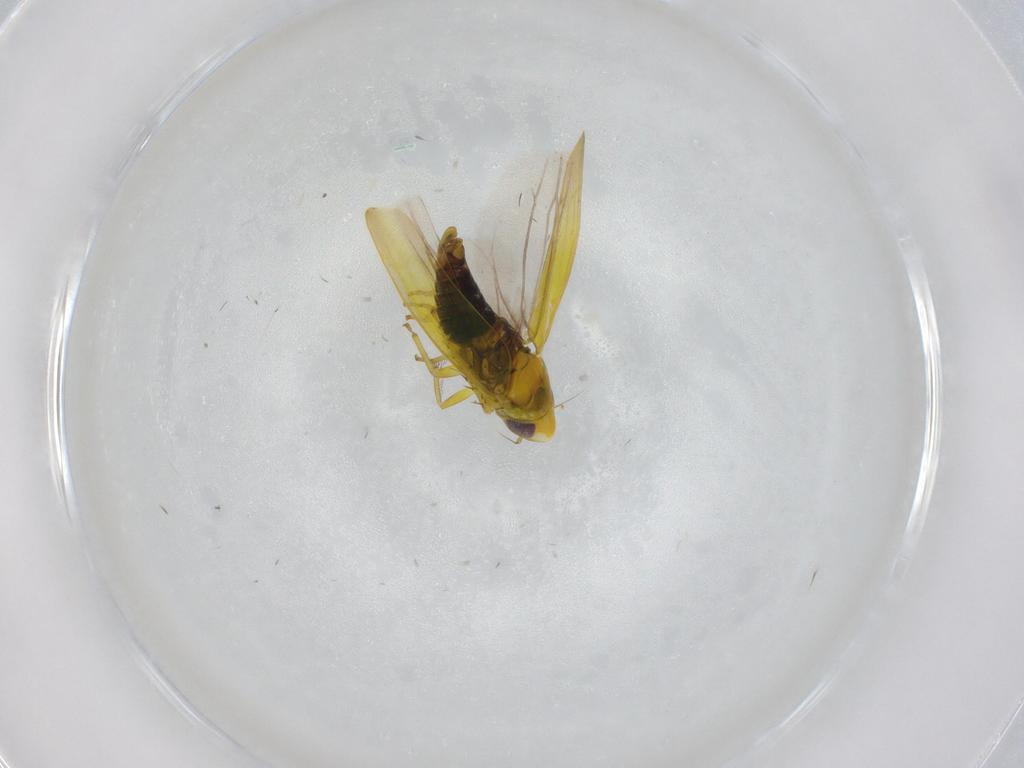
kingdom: Animalia
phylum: Arthropoda
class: Insecta
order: Hemiptera
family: Cicadellidae
